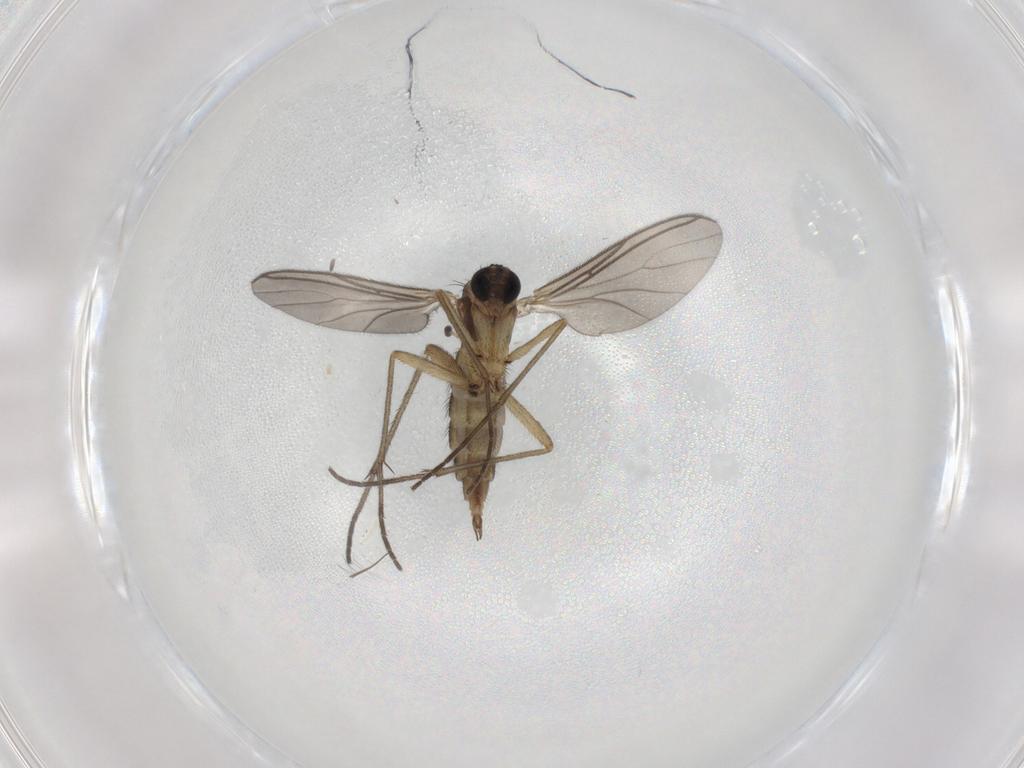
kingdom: Animalia
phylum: Arthropoda
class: Insecta
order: Diptera
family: Sciaridae
